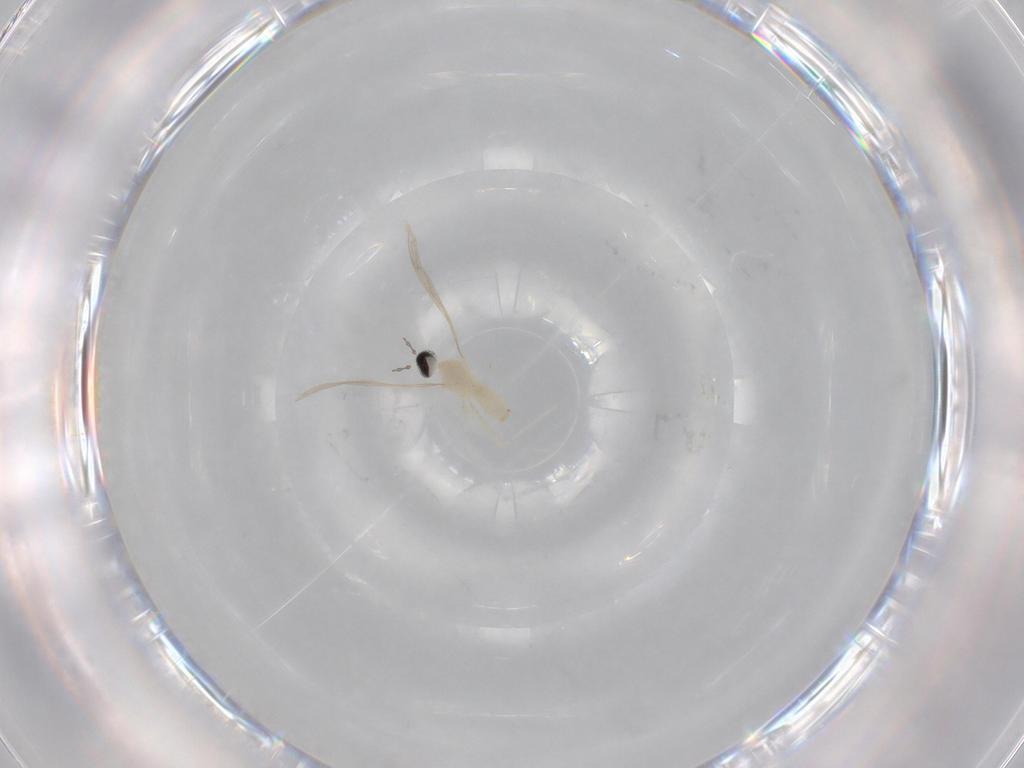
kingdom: Animalia
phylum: Arthropoda
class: Insecta
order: Diptera
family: Cecidomyiidae
